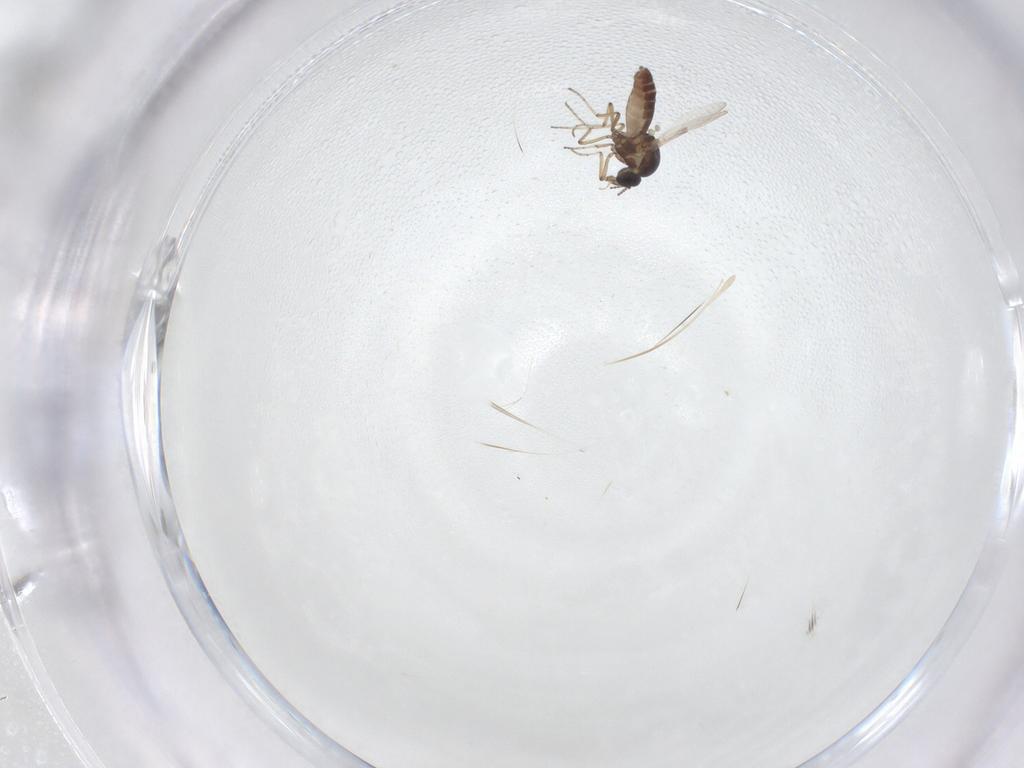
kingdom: Animalia
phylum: Arthropoda
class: Insecta
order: Diptera
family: Ceratopogonidae
